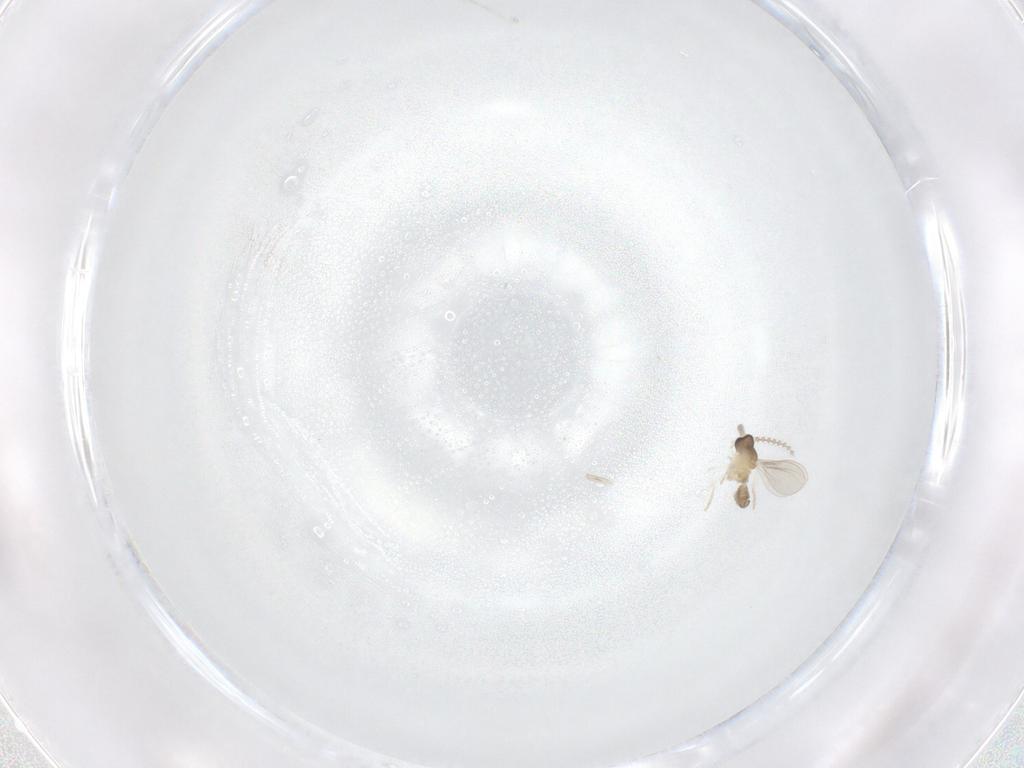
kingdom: Animalia
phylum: Arthropoda
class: Insecta
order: Diptera
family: Cecidomyiidae
